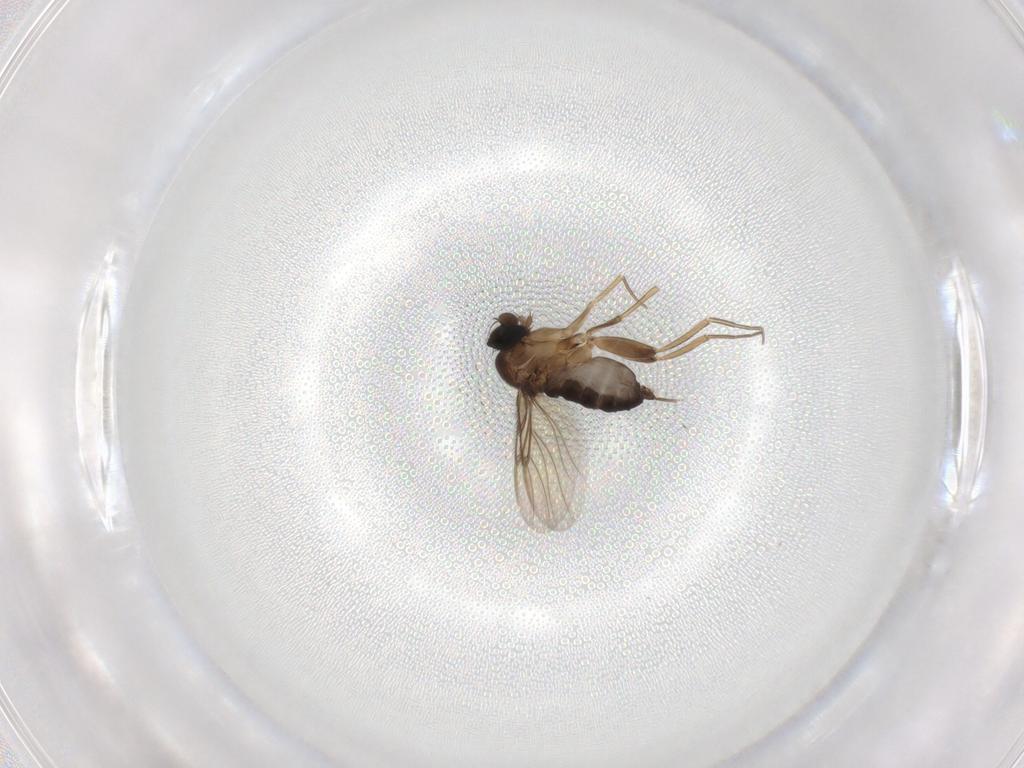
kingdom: Animalia
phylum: Arthropoda
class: Insecta
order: Diptera
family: Phoridae
